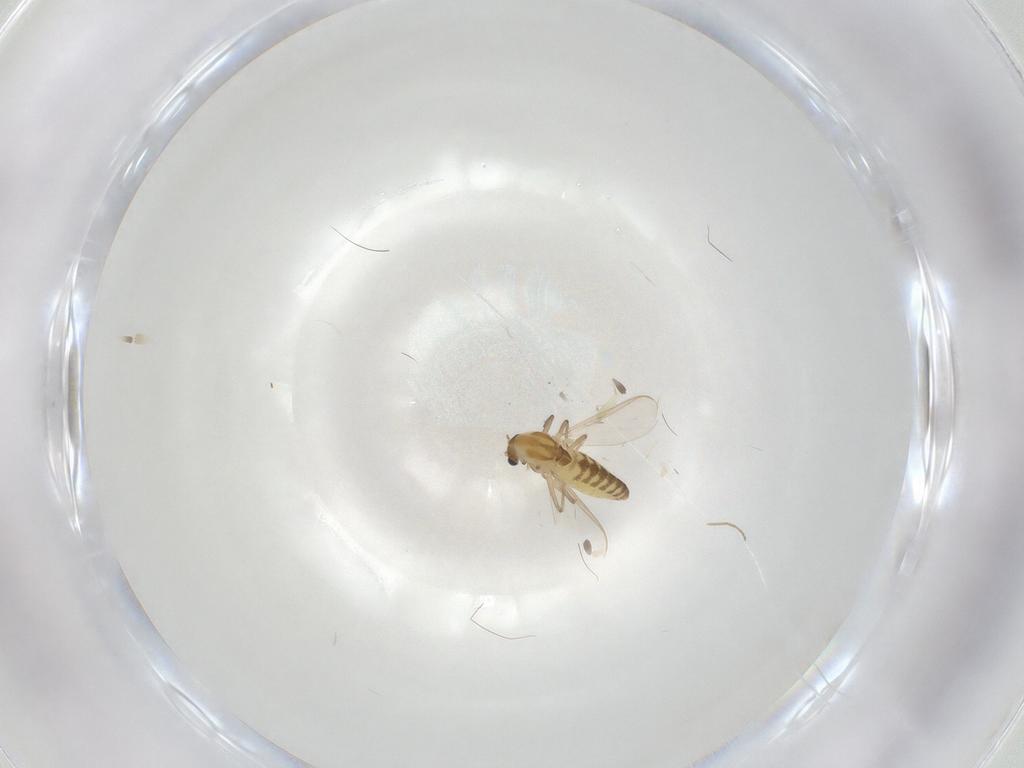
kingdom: Animalia
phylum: Arthropoda
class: Insecta
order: Diptera
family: Chironomidae
